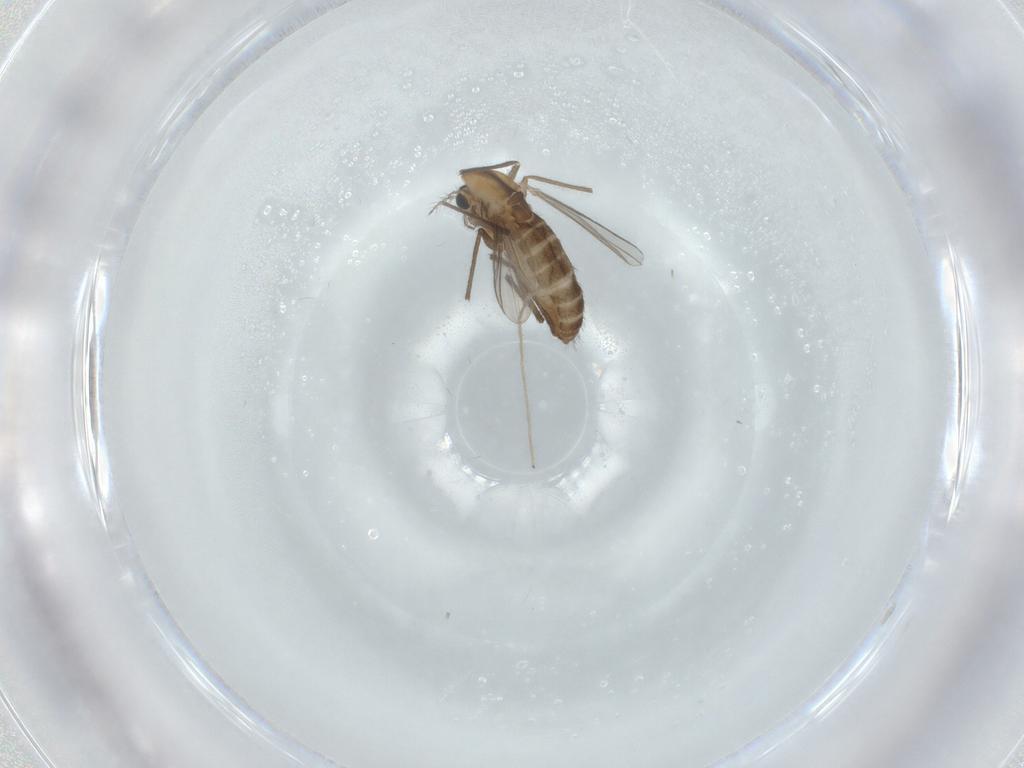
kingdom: Animalia
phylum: Arthropoda
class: Insecta
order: Diptera
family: Chironomidae
